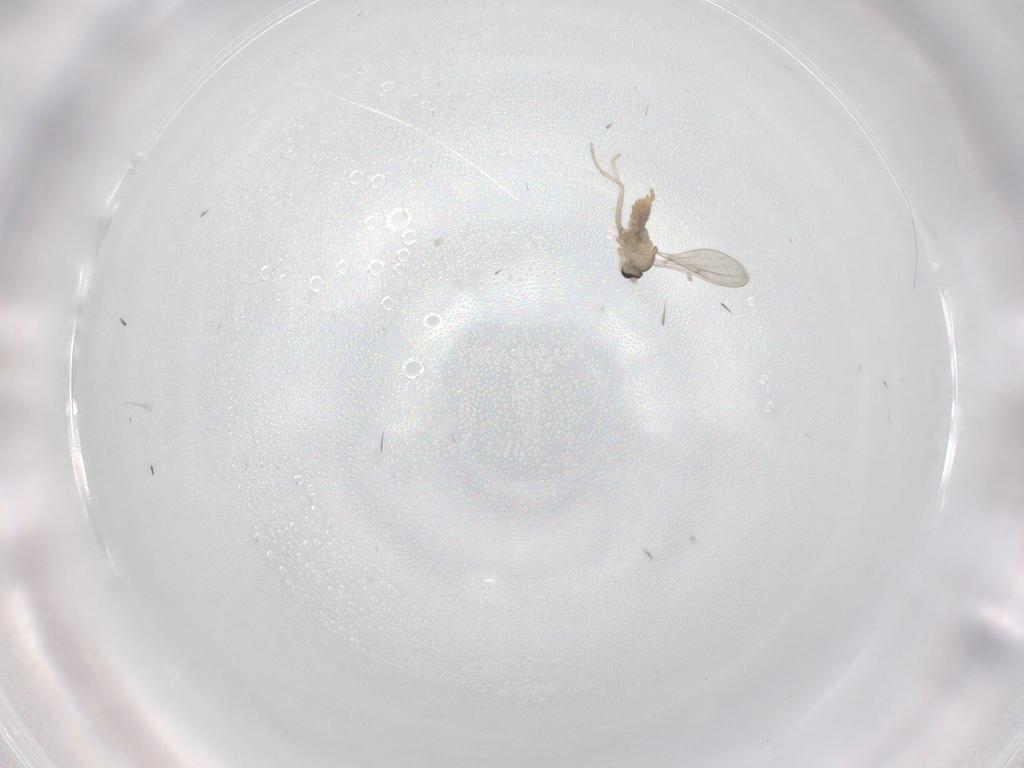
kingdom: Animalia
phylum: Arthropoda
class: Insecta
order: Diptera
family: Cecidomyiidae
